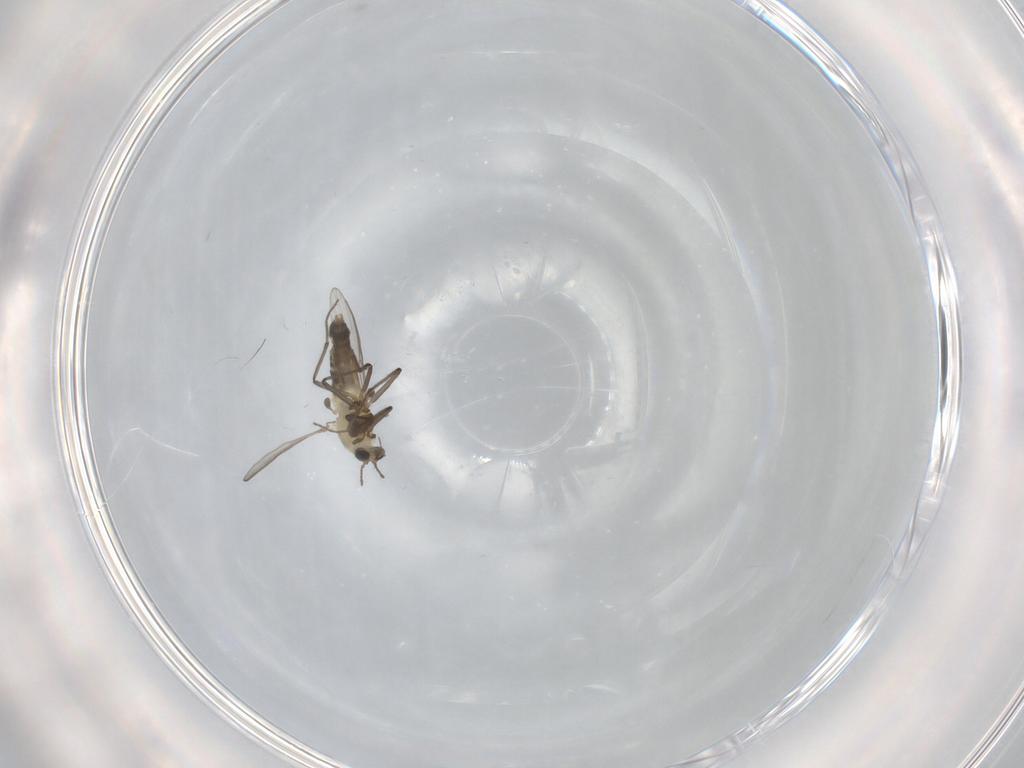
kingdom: Animalia
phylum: Arthropoda
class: Insecta
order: Diptera
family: Chironomidae
